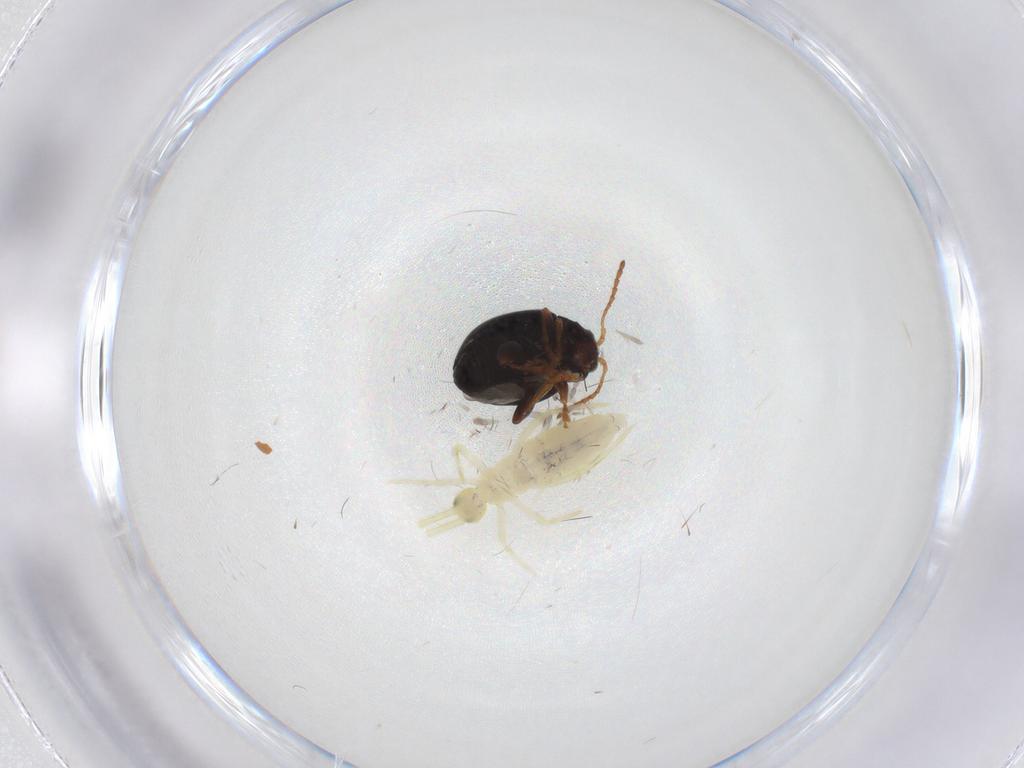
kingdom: Animalia
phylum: Arthropoda
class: Collembola
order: Entomobryomorpha
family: Paronellidae
